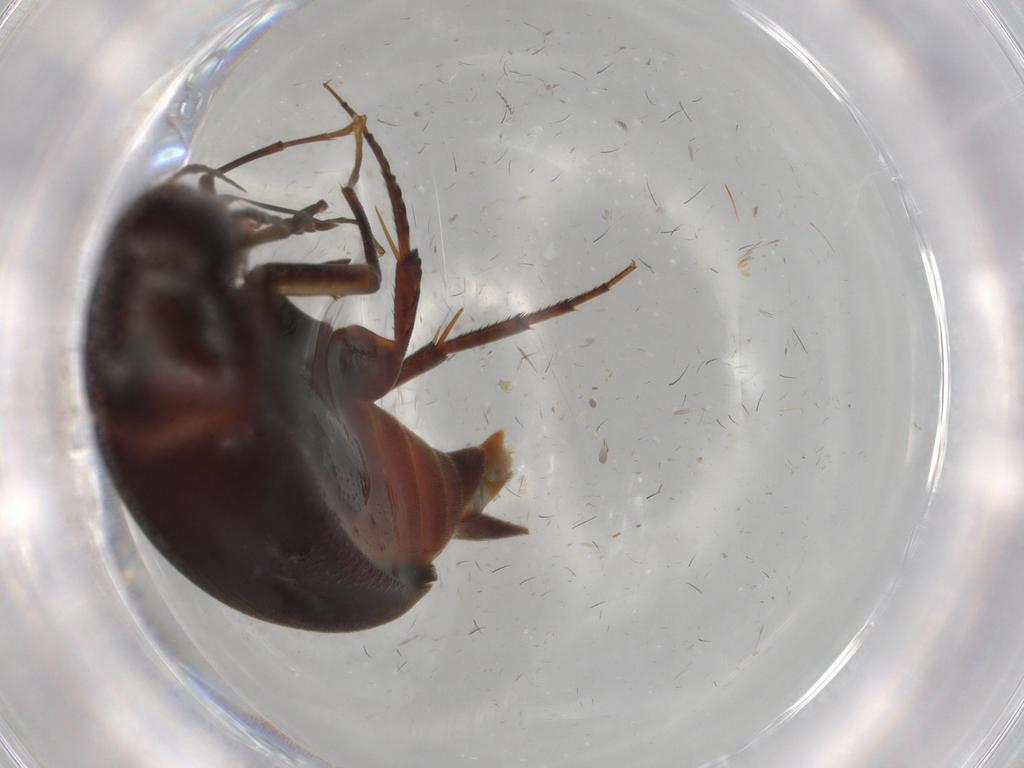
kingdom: Animalia
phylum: Arthropoda
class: Insecta
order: Coleoptera
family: Mordellidae
